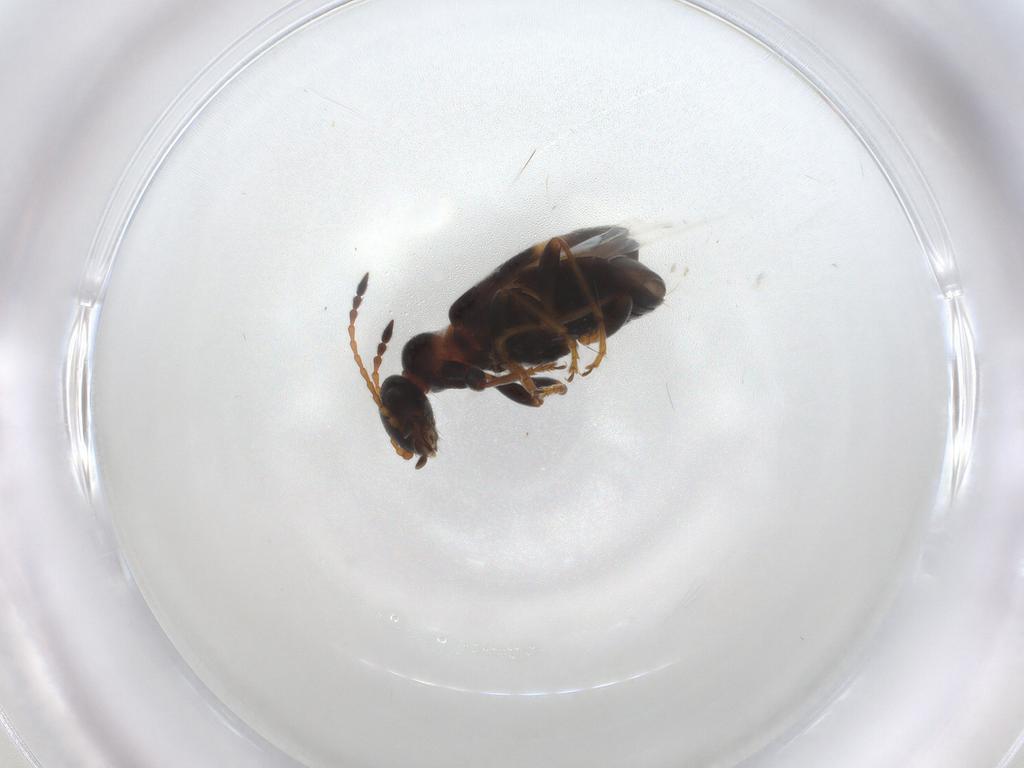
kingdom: Animalia
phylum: Arthropoda
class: Insecta
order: Coleoptera
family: Anthicidae
